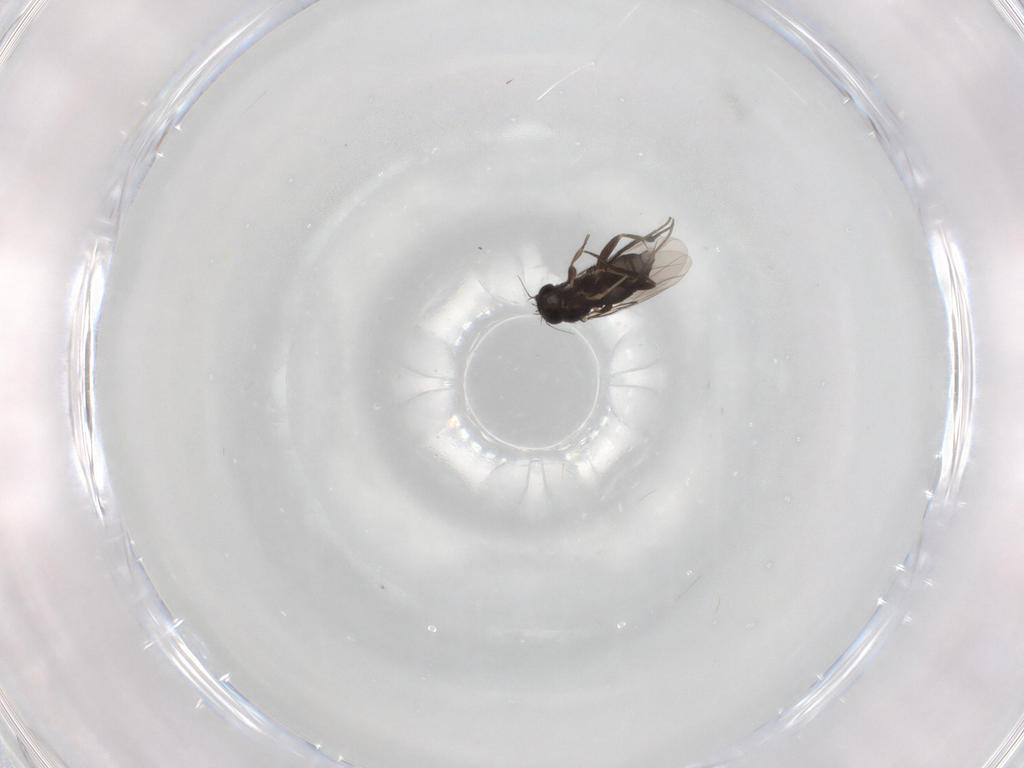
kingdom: Animalia
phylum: Arthropoda
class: Insecta
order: Diptera
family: Phoridae
